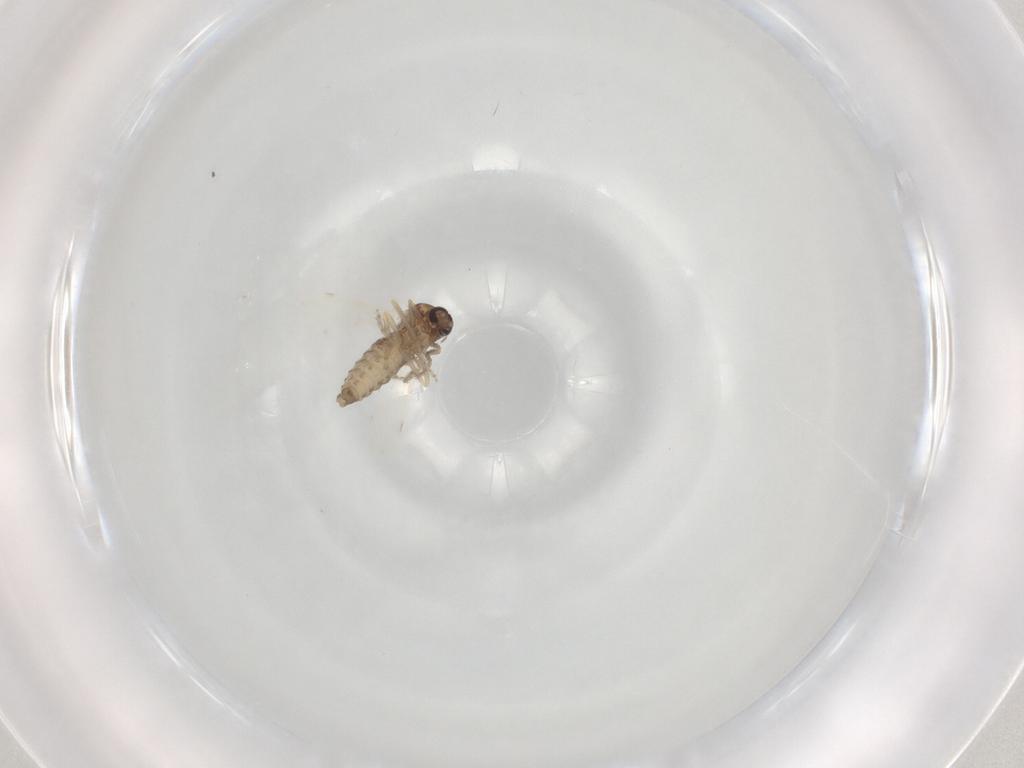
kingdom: Animalia
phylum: Arthropoda
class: Insecta
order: Diptera
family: Ceratopogonidae
